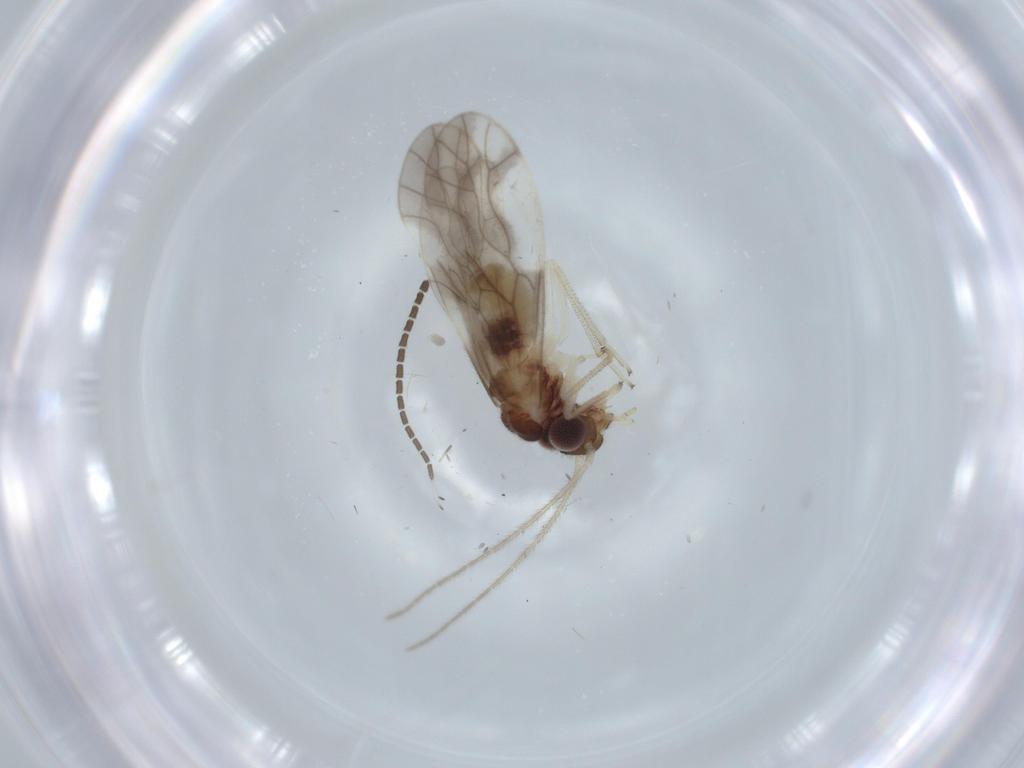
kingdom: Animalia
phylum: Arthropoda
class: Insecta
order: Psocodea
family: Caeciliusidae
